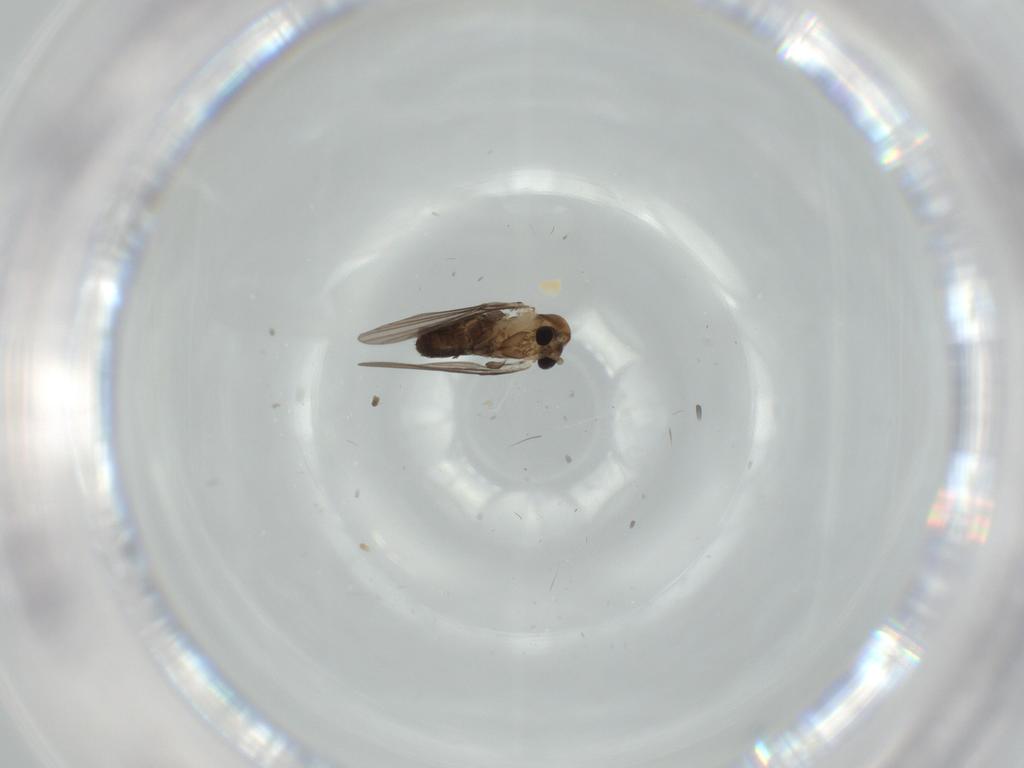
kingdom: Animalia
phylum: Arthropoda
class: Insecta
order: Diptera
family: Psychodidae
